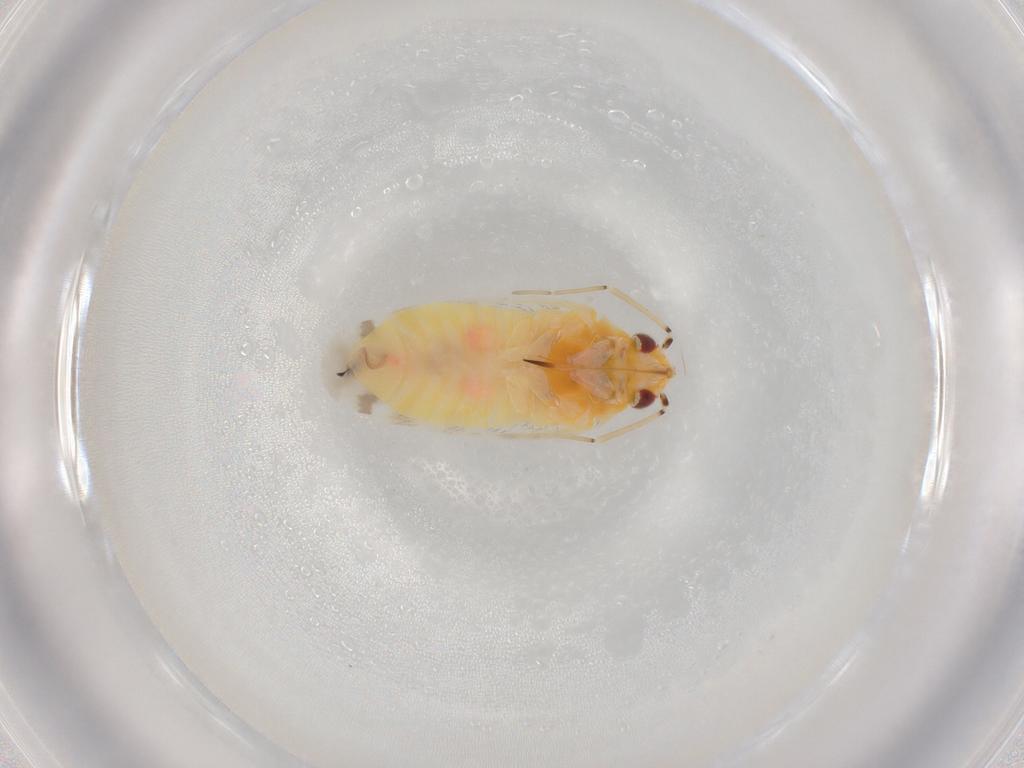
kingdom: Animalia
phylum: Arthropoda
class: Insecta
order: Hemiptera
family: Cicadellidae
